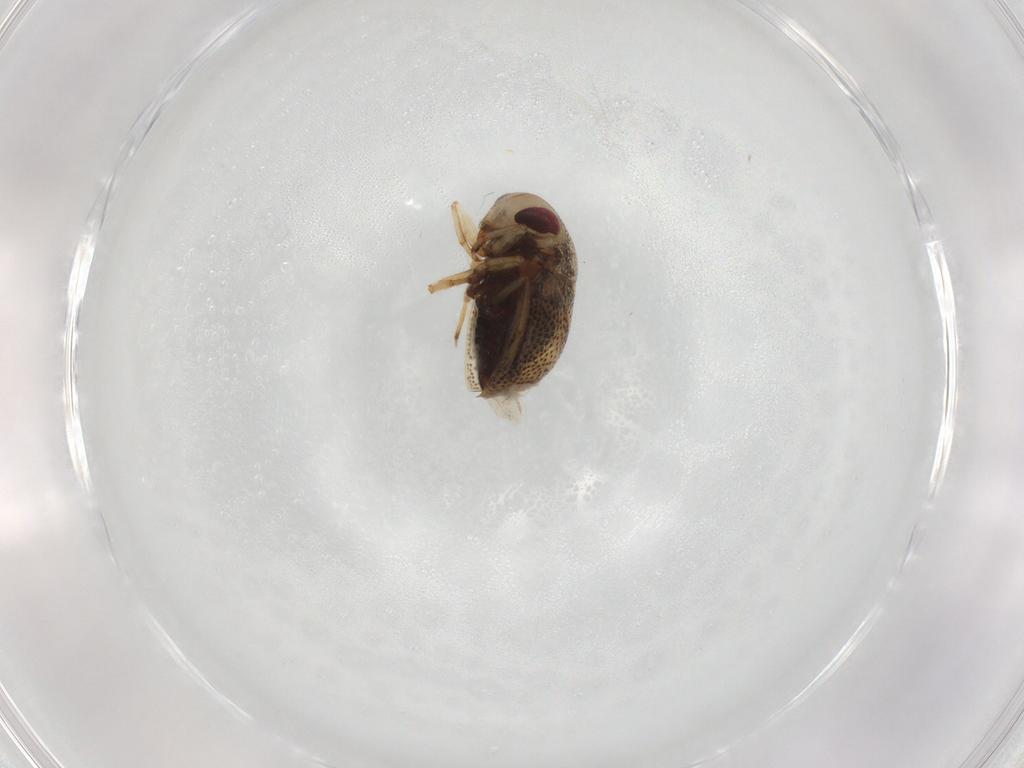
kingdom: Animalia
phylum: Arthropoda
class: Insecta
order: Hemiptera
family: Pleidae
